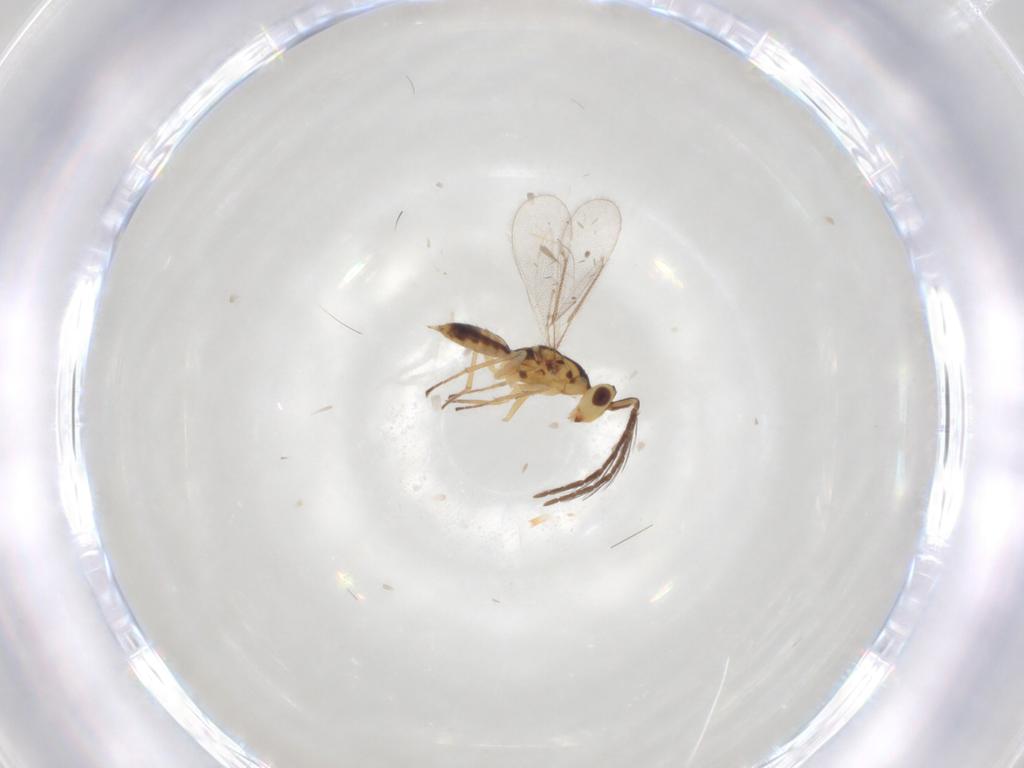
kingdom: Animalia
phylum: Arthropoda
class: Insecta
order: Hymenoptera
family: Eulophidae
